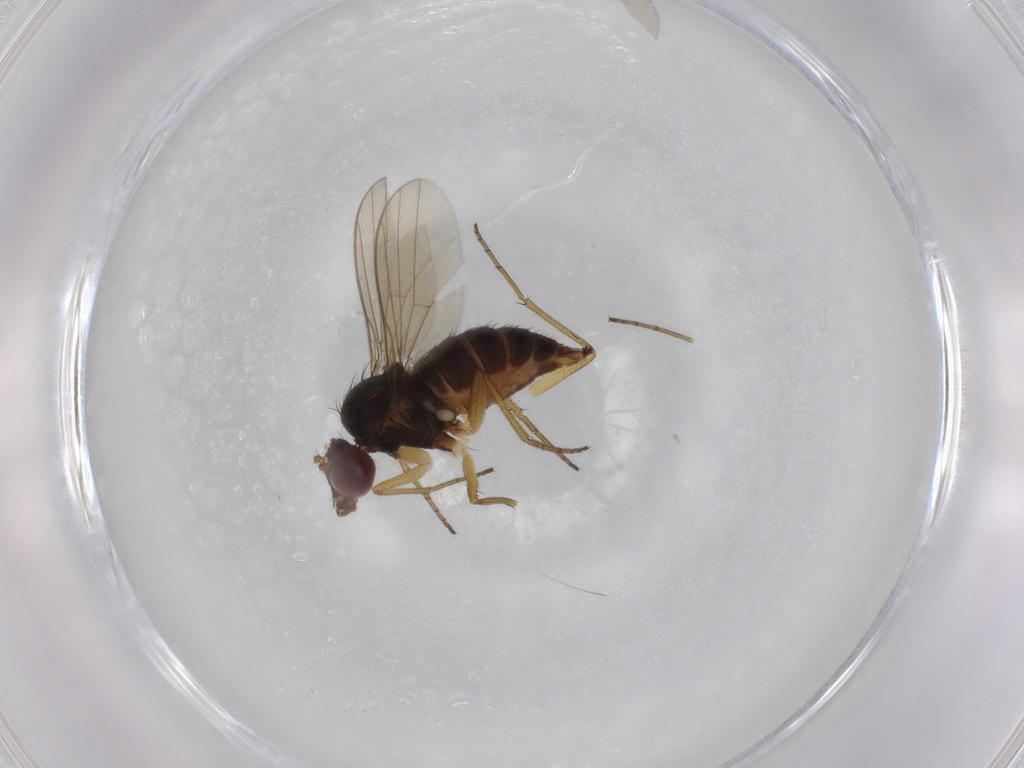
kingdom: Animalia
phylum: Arthropoda
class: Insecta
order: Diptera
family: Dolichopodidae
